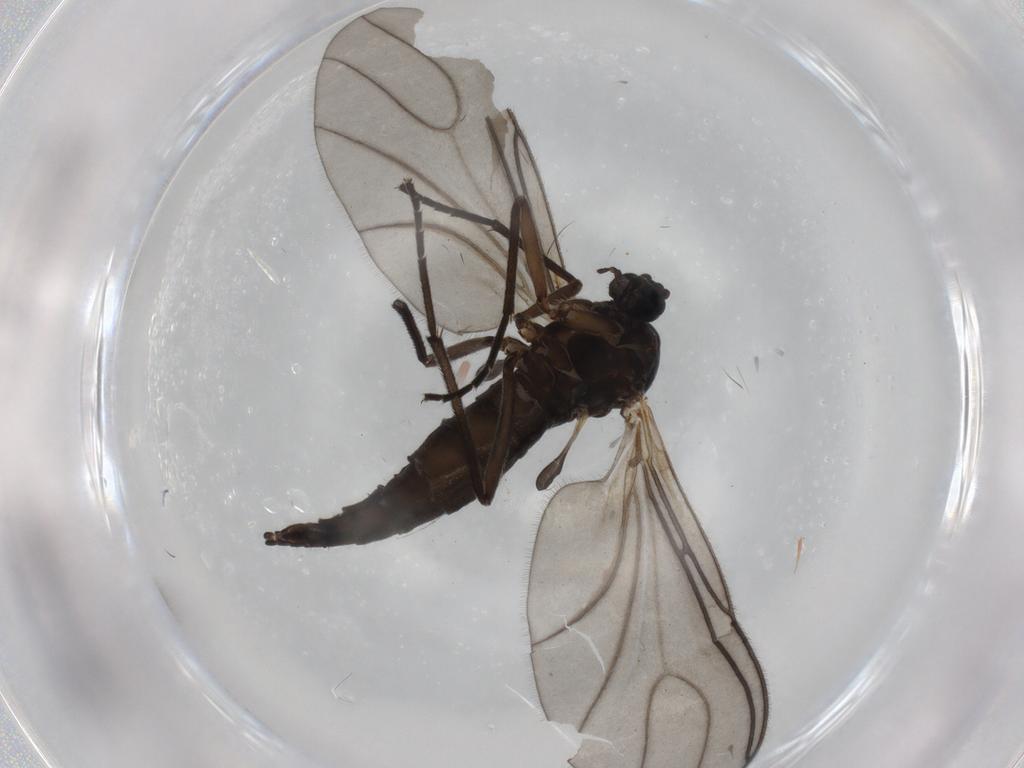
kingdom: Animalia
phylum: Arthropoda
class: Insecta
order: Diptera
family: Sciaridae
